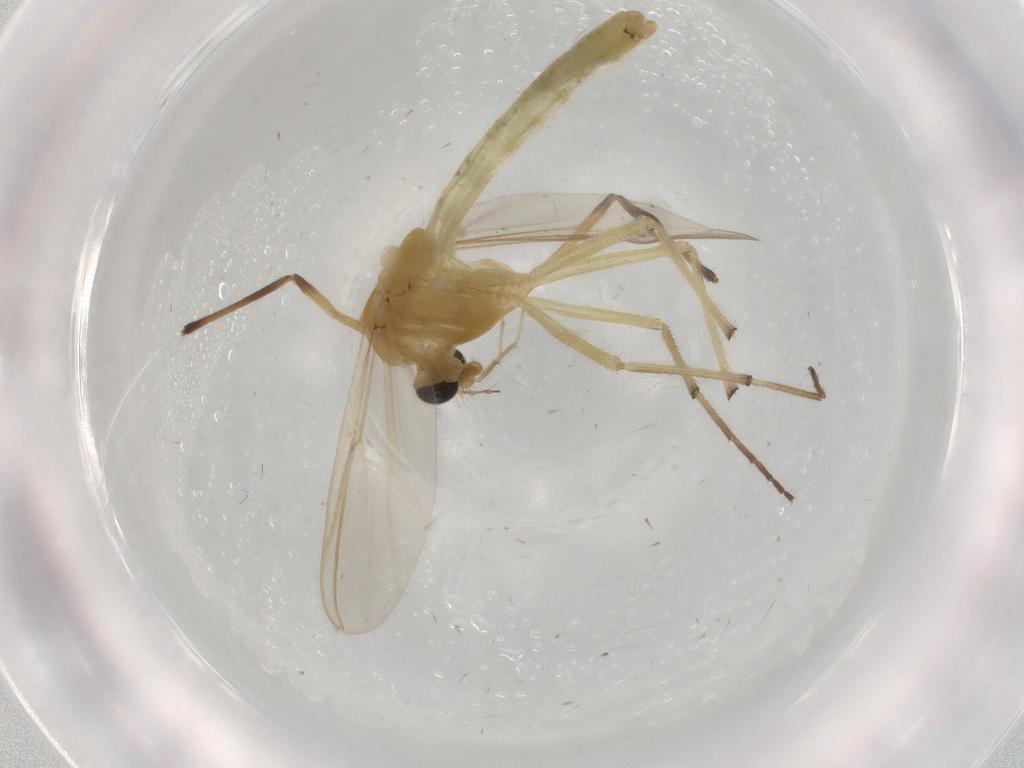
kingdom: Animalia
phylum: Arthropoda
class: Insecta
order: Diptera
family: Chironomidae
